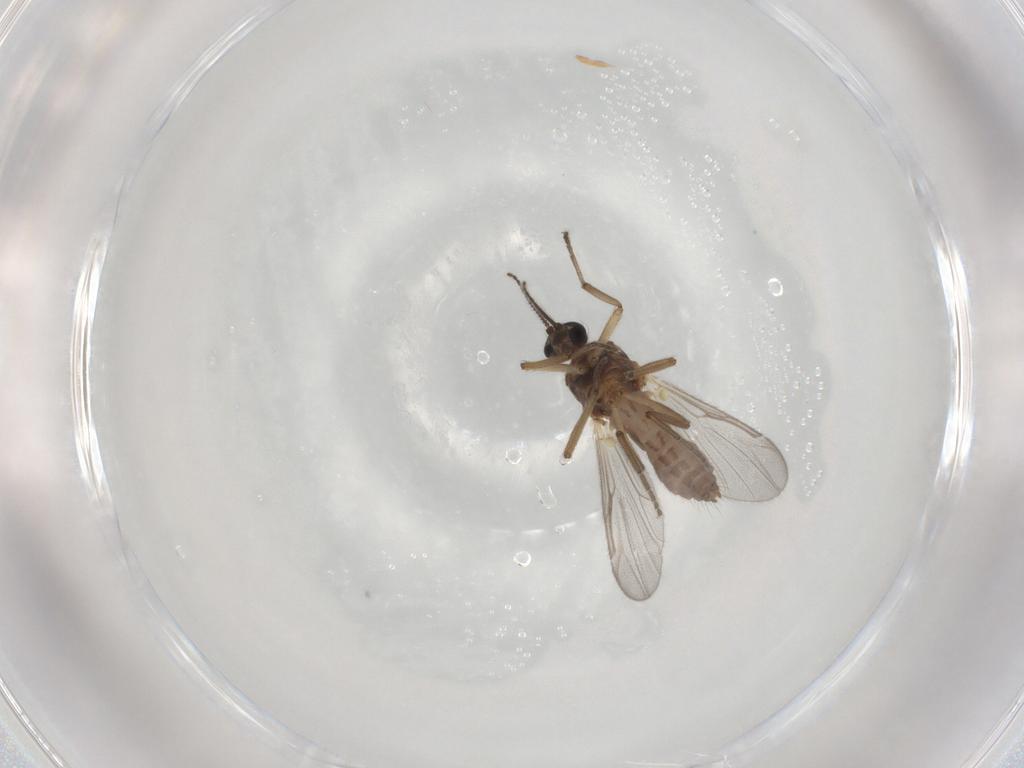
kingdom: Animalia
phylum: Arthropoda
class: Insecta
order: Diptera
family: Ceratopogonidae
